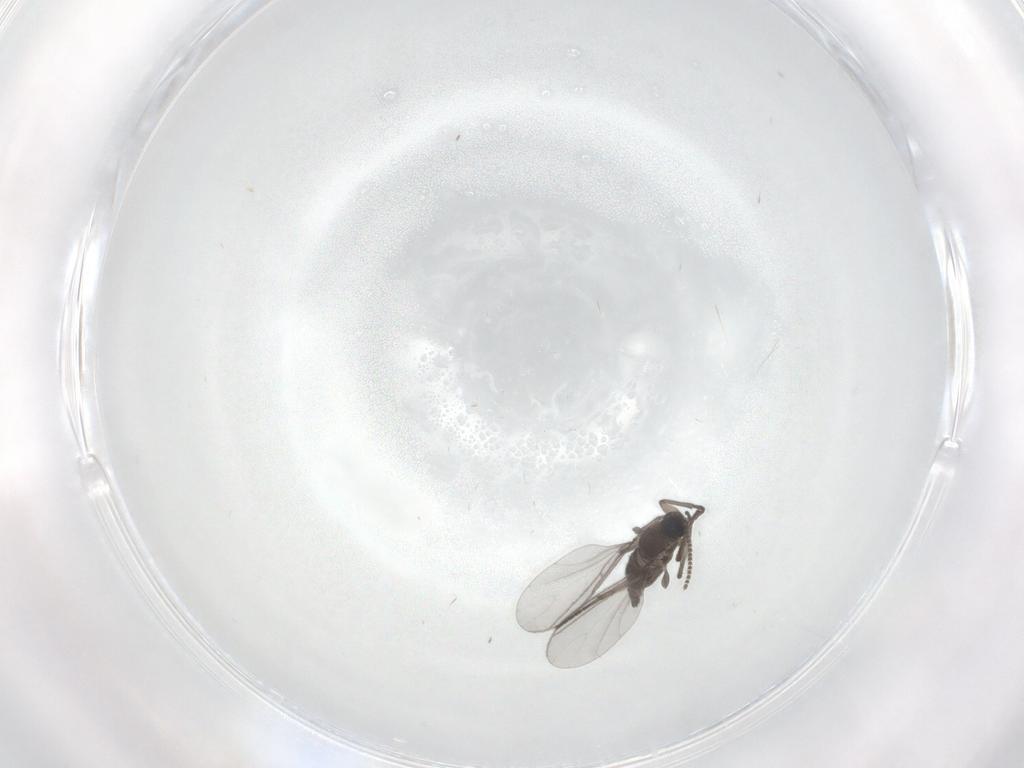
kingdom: Animalia
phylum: Arthropoda
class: Insecta
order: Diptera
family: Sciaridae
